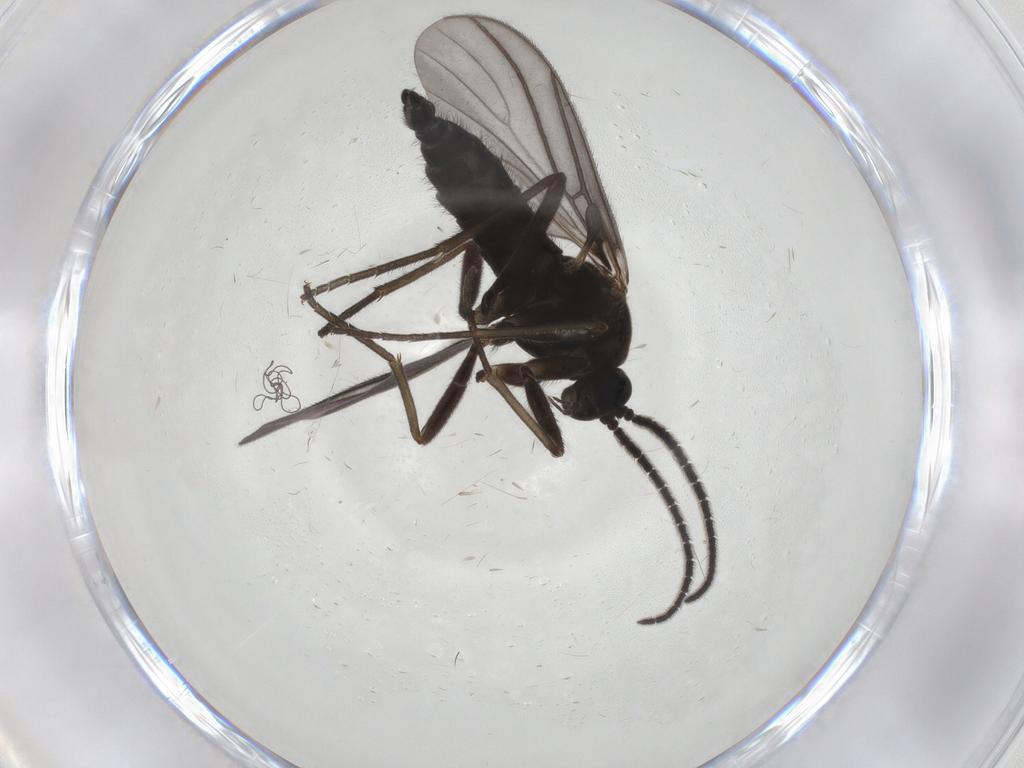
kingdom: Animalia
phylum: Arthropoda
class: Insecta
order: Diptera
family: Sciaridae
